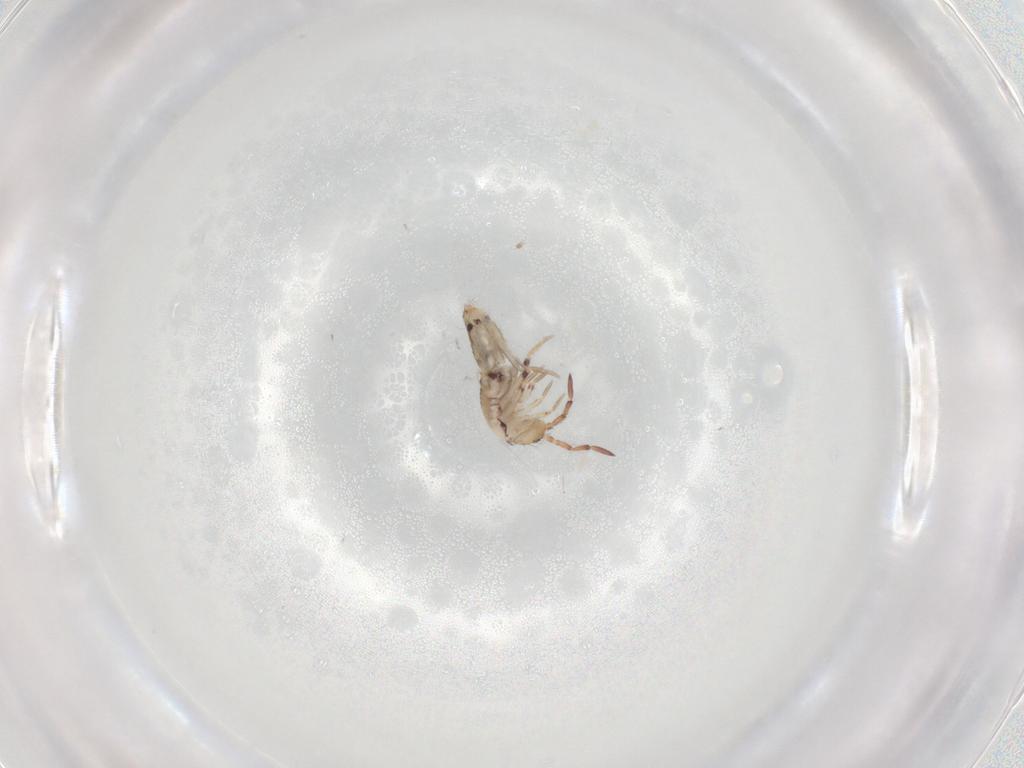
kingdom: Animalia
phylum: Arthropoda
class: Collembola
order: Entomobryomorpha
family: Entomobryidae
